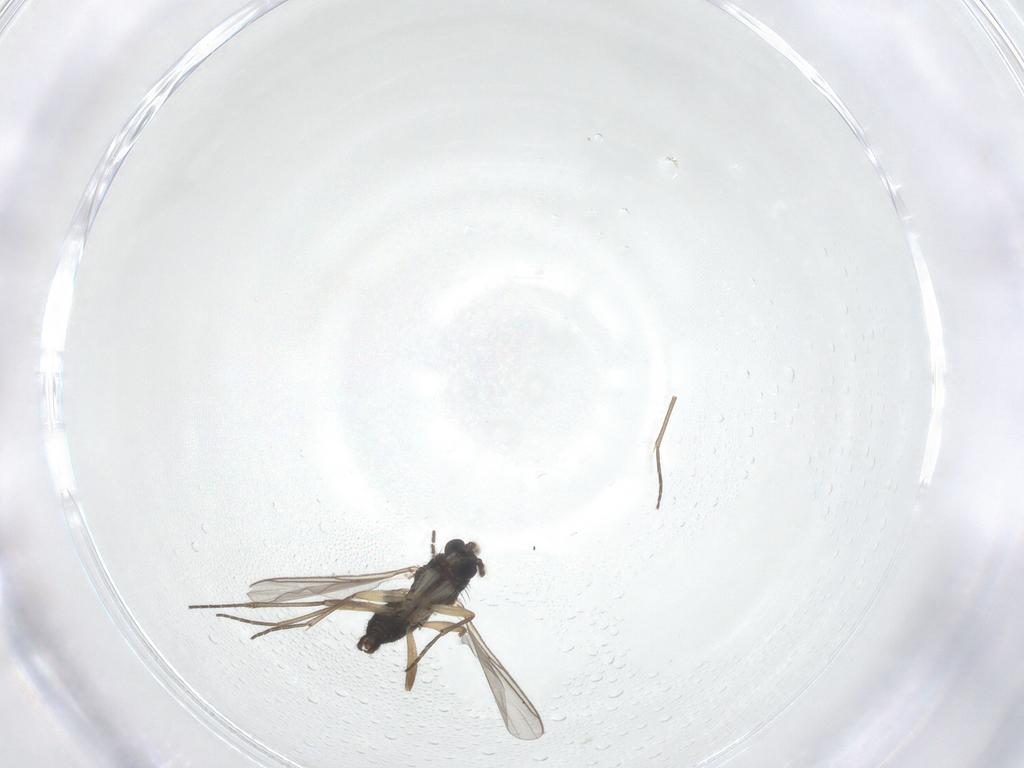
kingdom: Animalia
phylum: Arthropoda
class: Insecta
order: Diptera
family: Sciaridae
